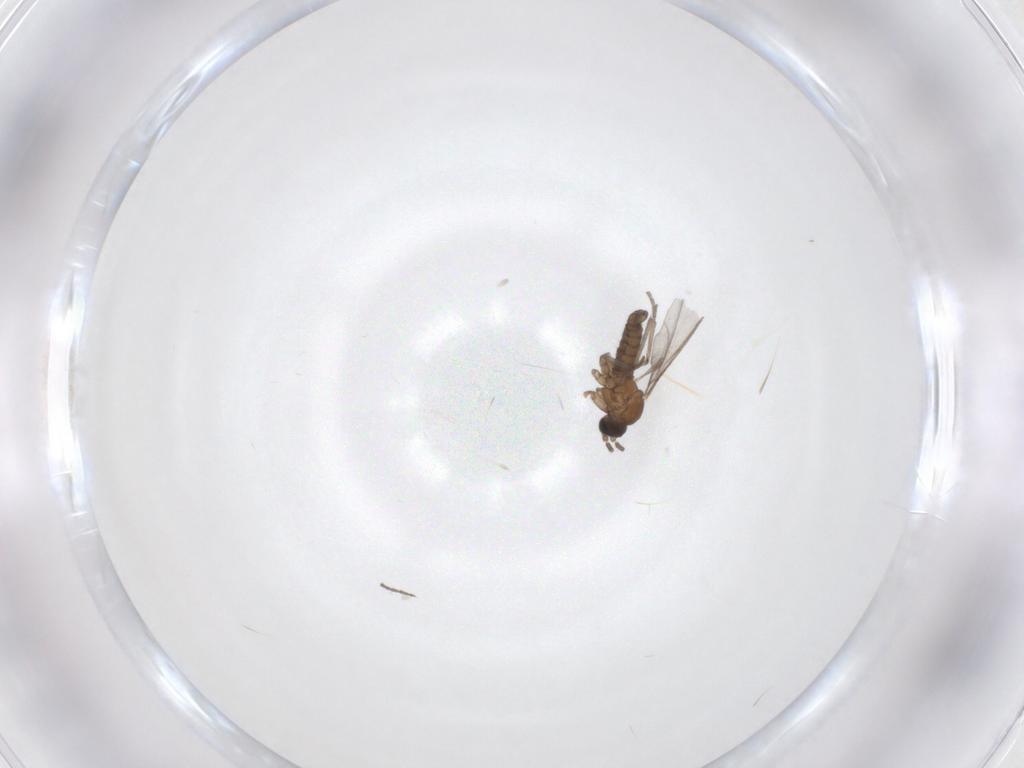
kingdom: Animalia
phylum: Arthropoda
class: Insecta
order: Diptera
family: Sciaridae
